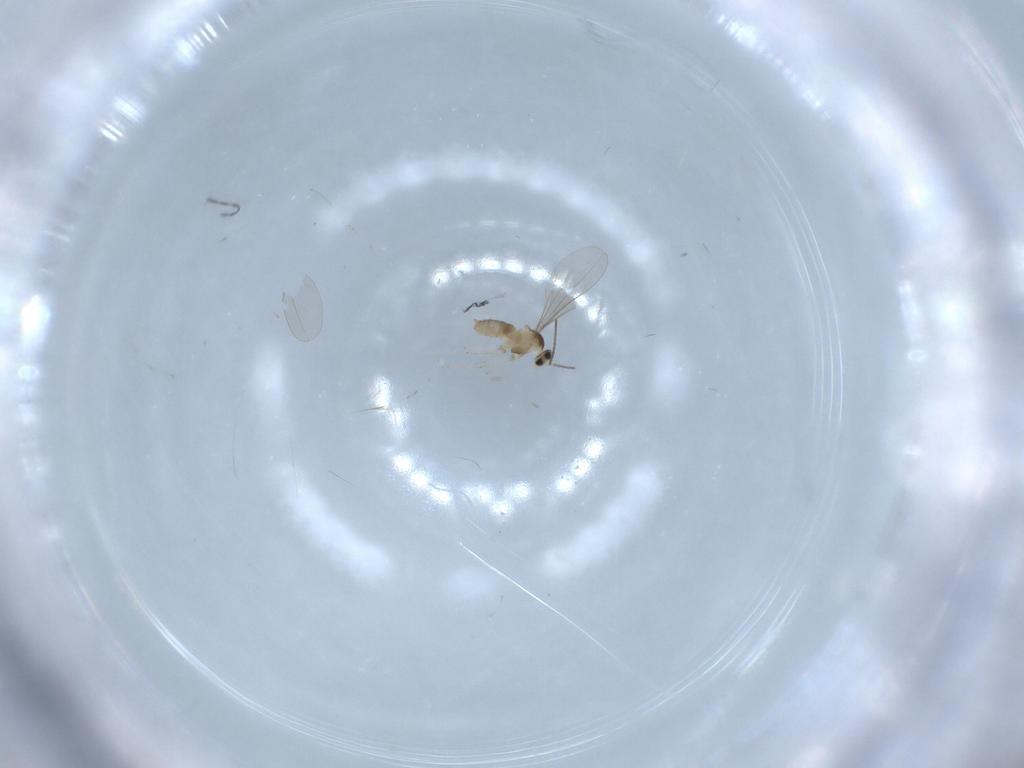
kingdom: Animalia
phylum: Arthropoda
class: Insecta
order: Diptera
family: Cecidomyiidae
